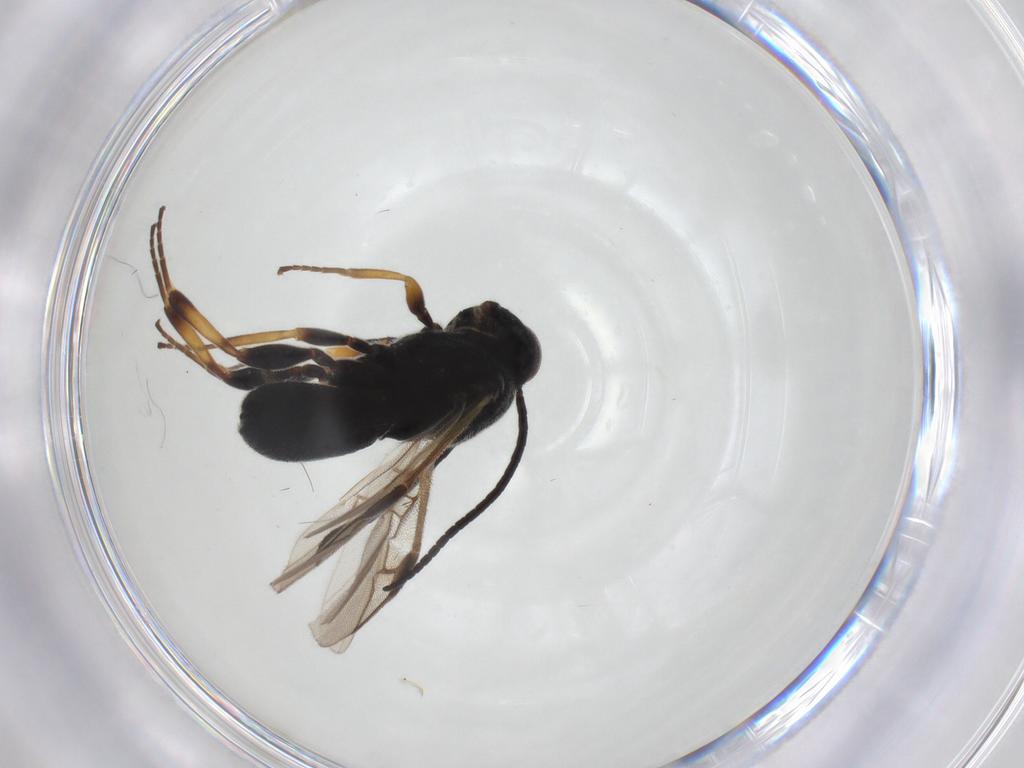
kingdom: Animalia
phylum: Arthropoda
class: Insecta
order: Hymenoptera
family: Braconidae
